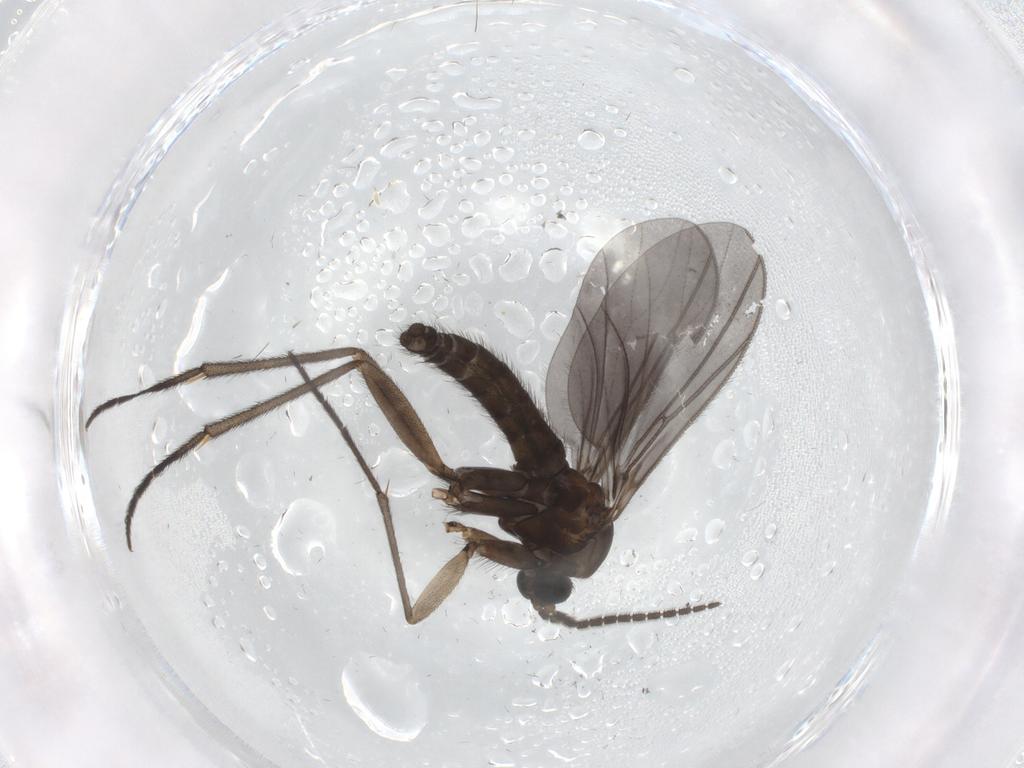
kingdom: Animalia
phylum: Arthropoda
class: Insecta
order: Diptera
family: Sciaridae
